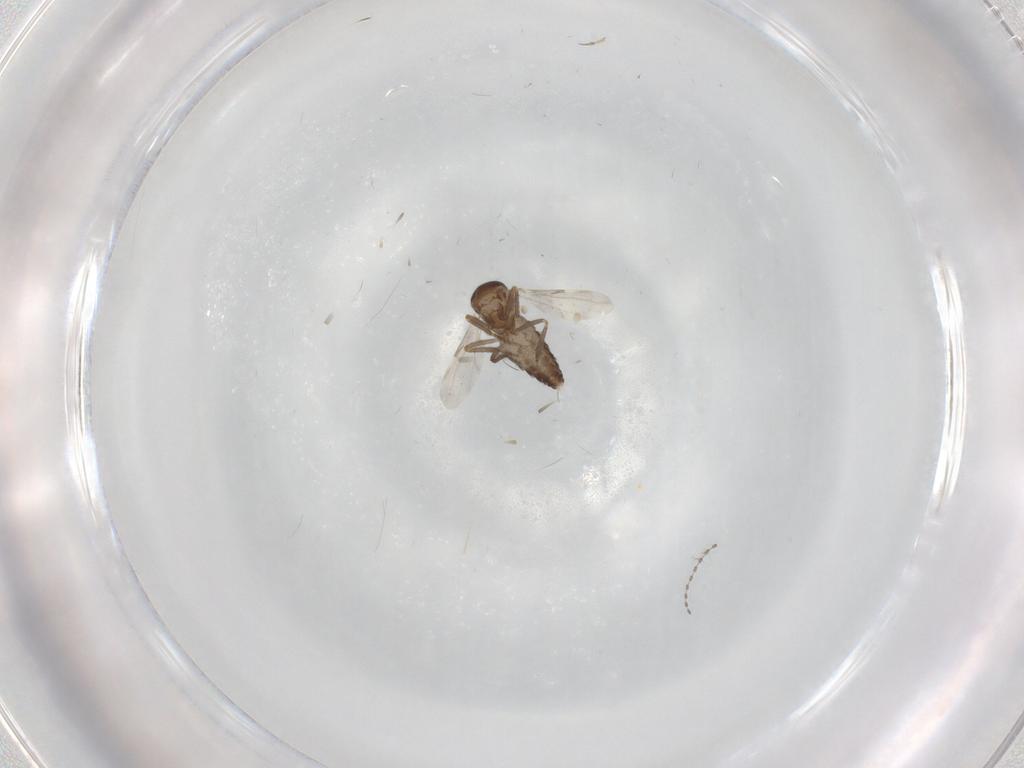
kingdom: Animalia
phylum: Arthropoda
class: Insecta
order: Diptera
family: Ceratopogonidae
